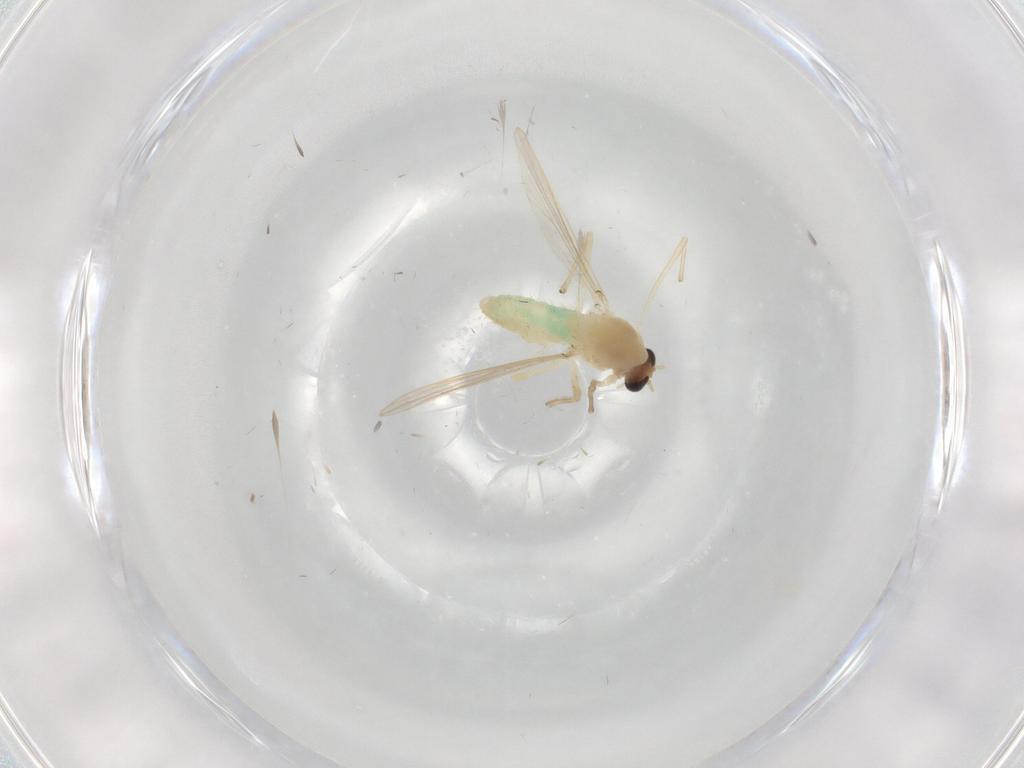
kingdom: Animalia
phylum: Arthropoda
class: Insecta
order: Diptera
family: Chironomidae
